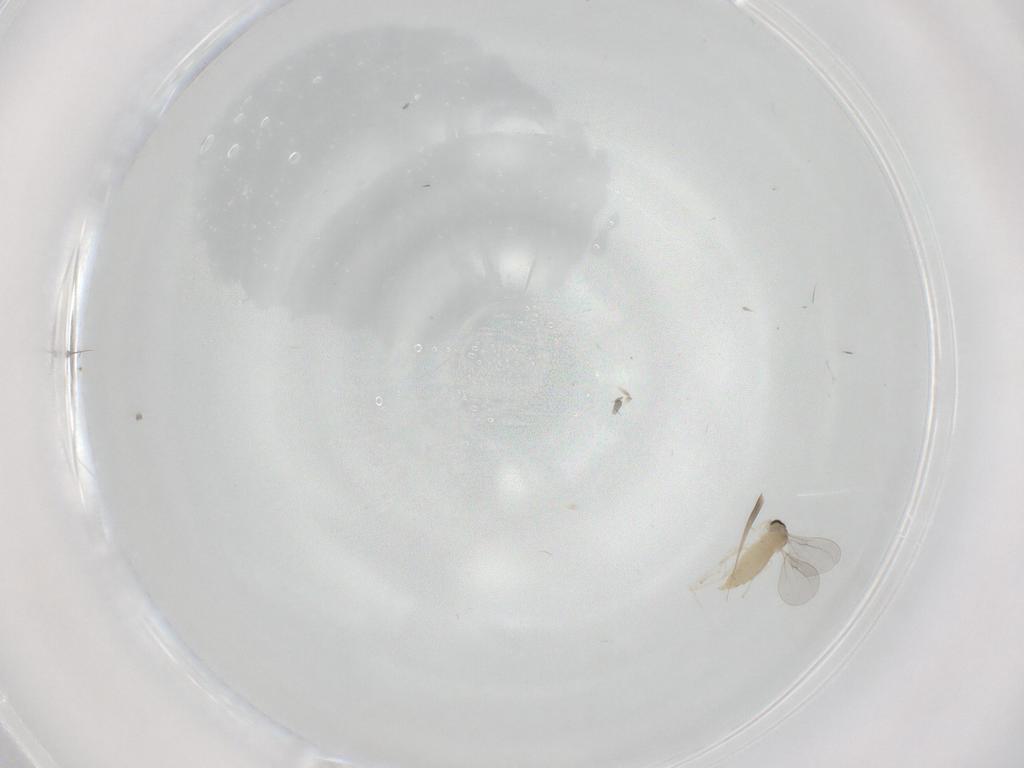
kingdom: Animalia
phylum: Arthropoda
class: Insecta
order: Diptera
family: Cecidomyiidae
